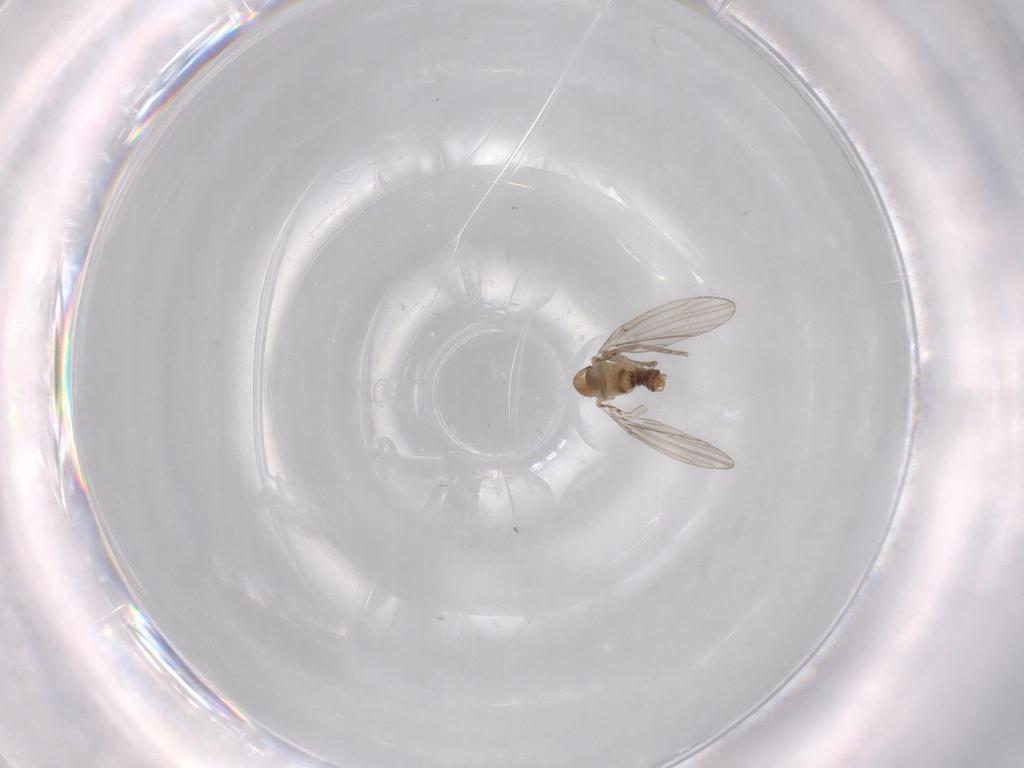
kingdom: Animalia
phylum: Arthropoda
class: Insecta
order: Diptera
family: Psychodidae
